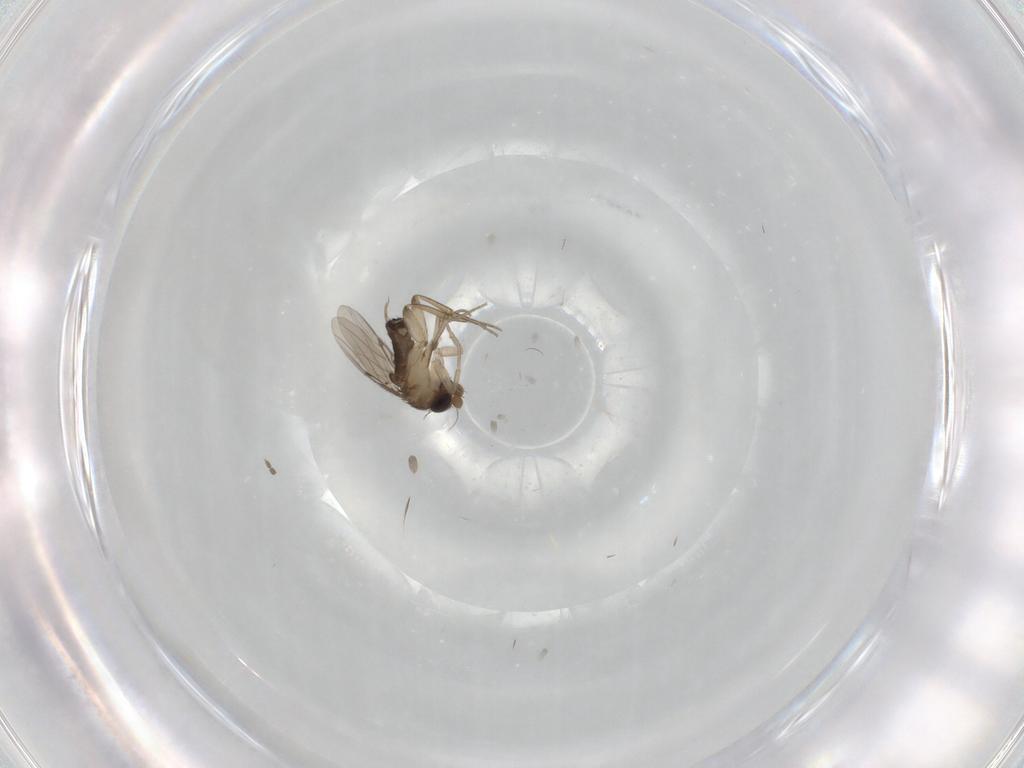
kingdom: Animalia
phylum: Arthropoda
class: Insecta
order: Diptera
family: Phoridae
